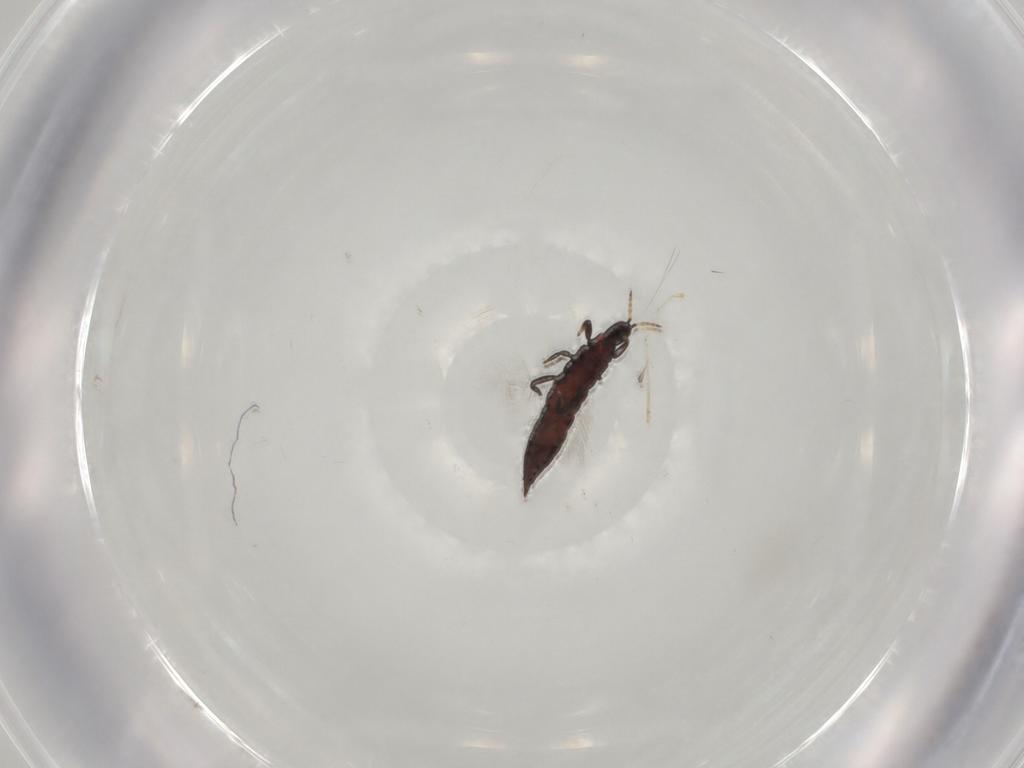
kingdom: Animalia
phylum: Arthropoda
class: Insecta
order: Thysanoptera
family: Phlaeothripidae
